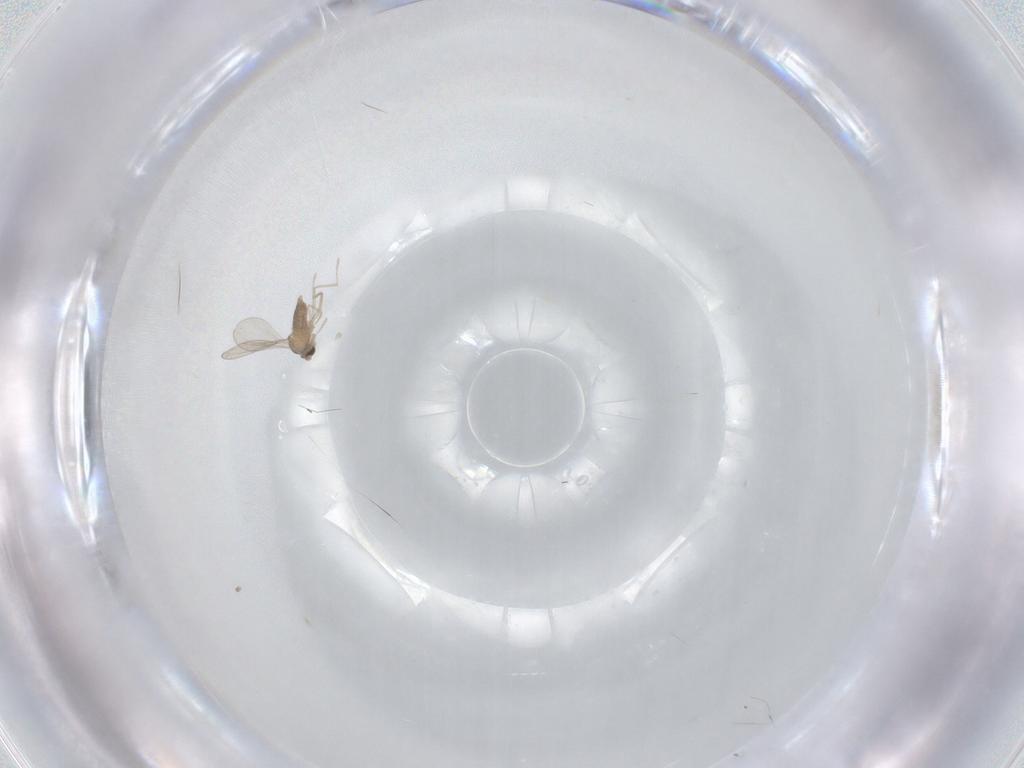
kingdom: Animalia
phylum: Arthropoda
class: Insecta
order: Diptera
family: Cecidomyiidae
